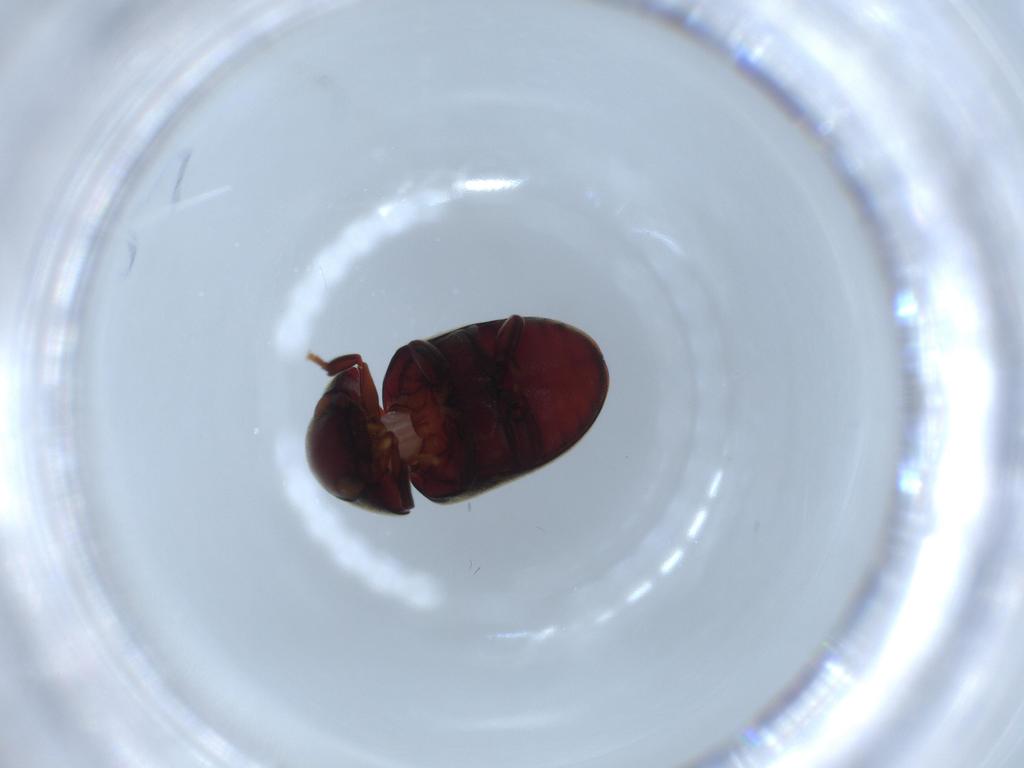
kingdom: Animalia
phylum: Arthropoda
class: Insecta
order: Coleoptera
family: Ptinidae
